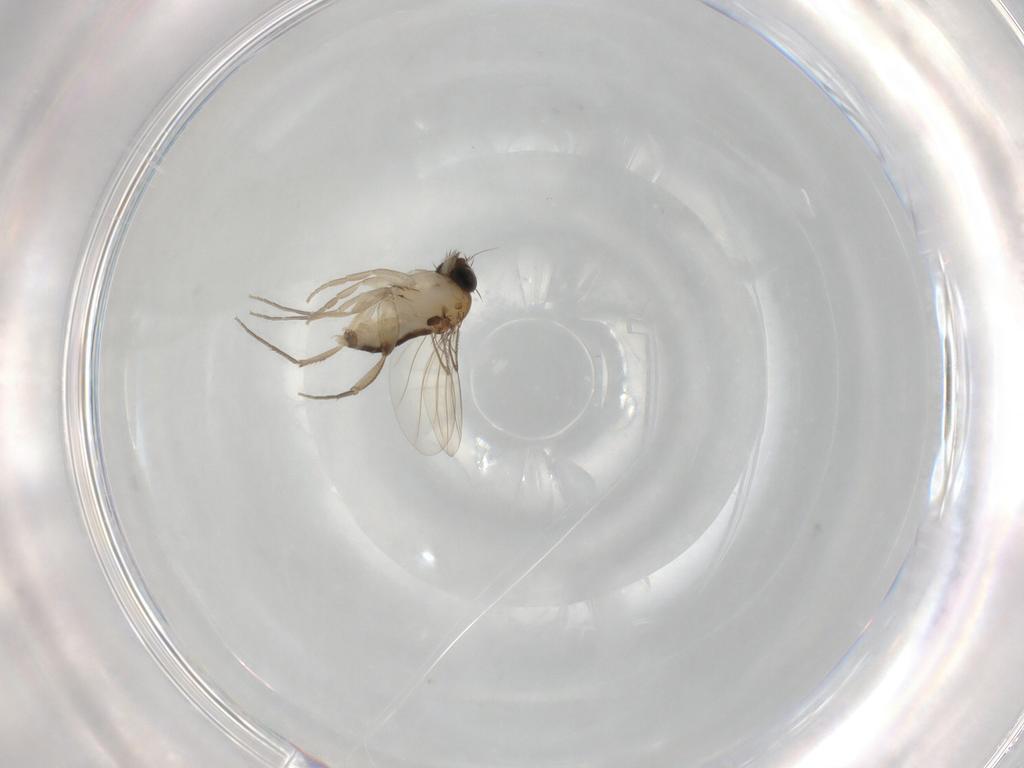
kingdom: Animalia
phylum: Arthropoda
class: Insecta
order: Diptera
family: Phoridae
